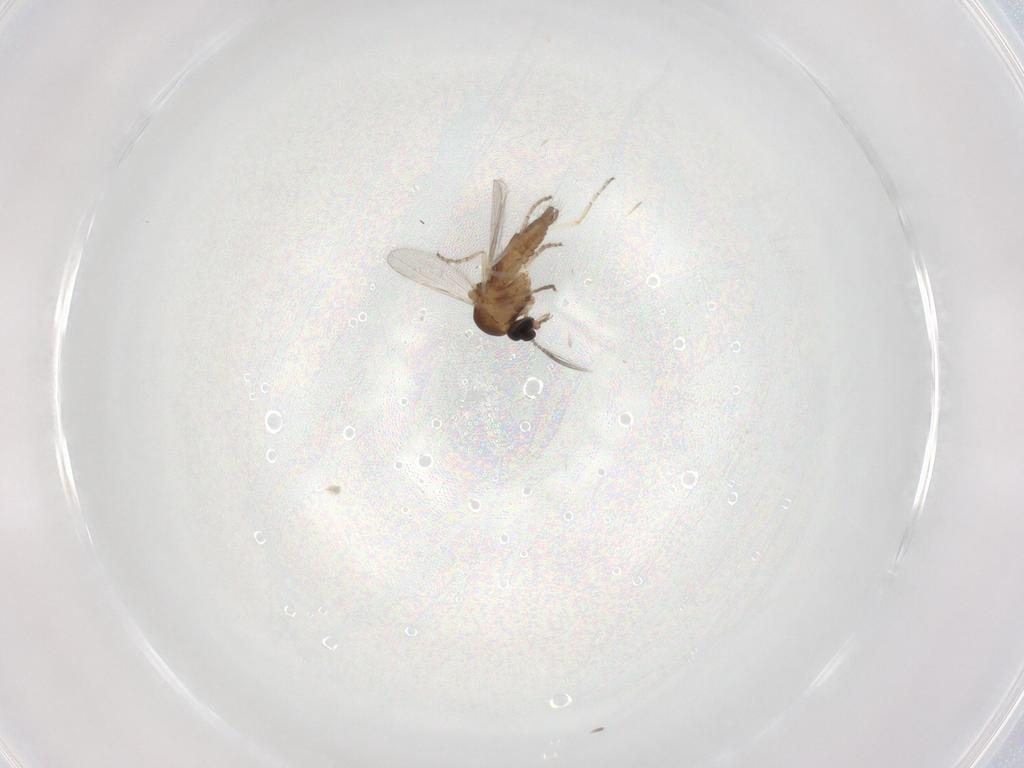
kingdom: Animalia
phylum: Arthropoda
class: Insecta
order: Diptera
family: Ceratopogonidae
